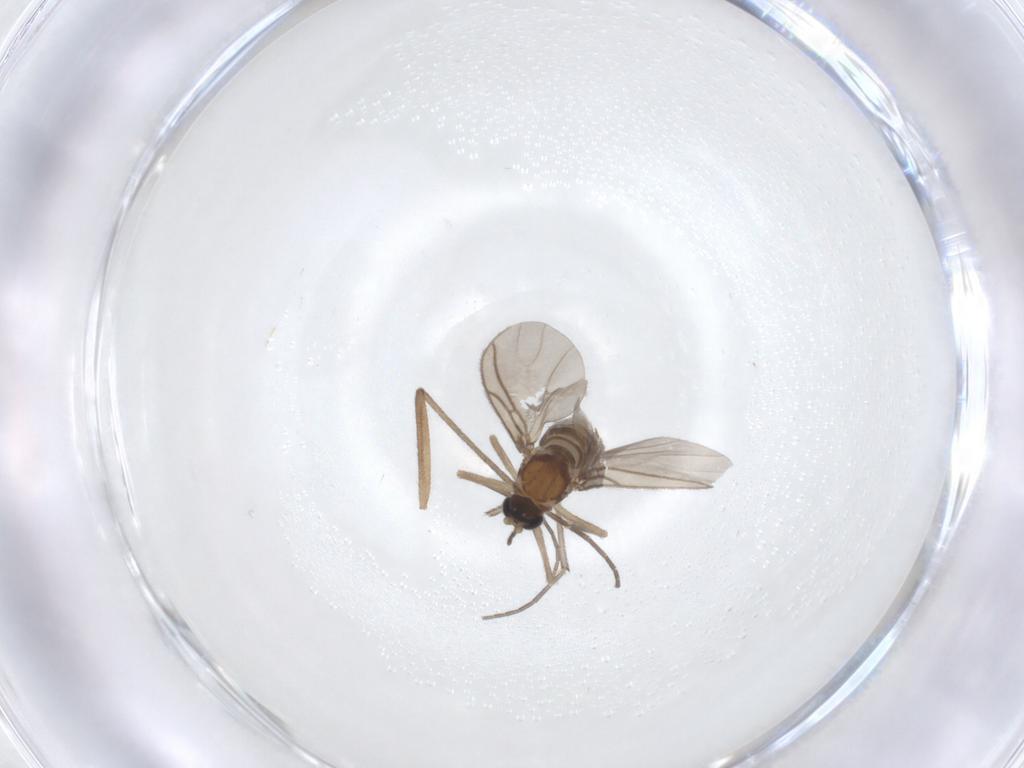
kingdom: Animalia
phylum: Arthropoda
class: Insecta
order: Diptera
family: Sciaridae
